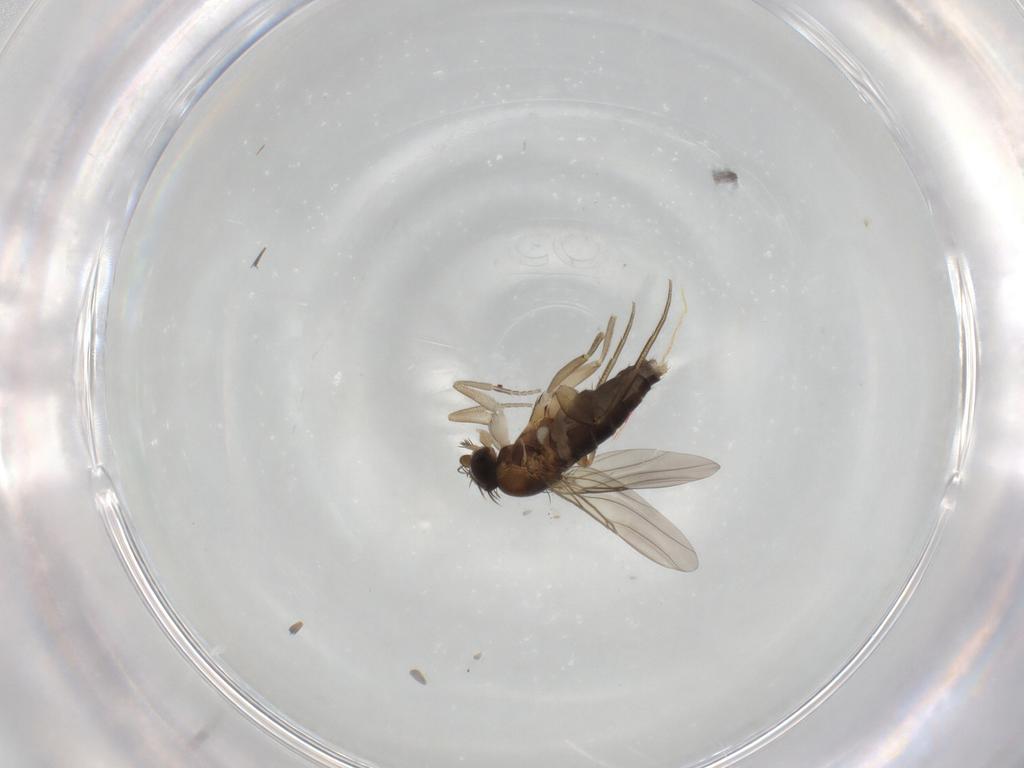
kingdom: Animalia
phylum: Arthropoda
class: Insecta
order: Diptera
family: Phoridae
